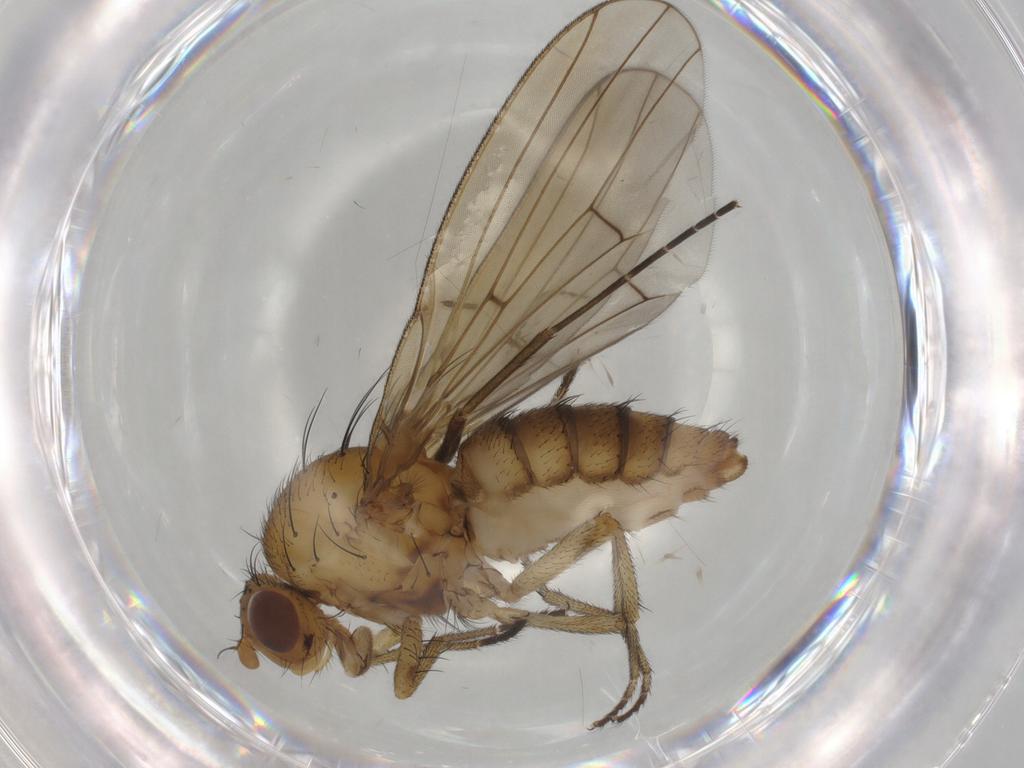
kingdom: Animalia
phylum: Arthropoda
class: Insecta
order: Diptera
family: Mycetophilidae
